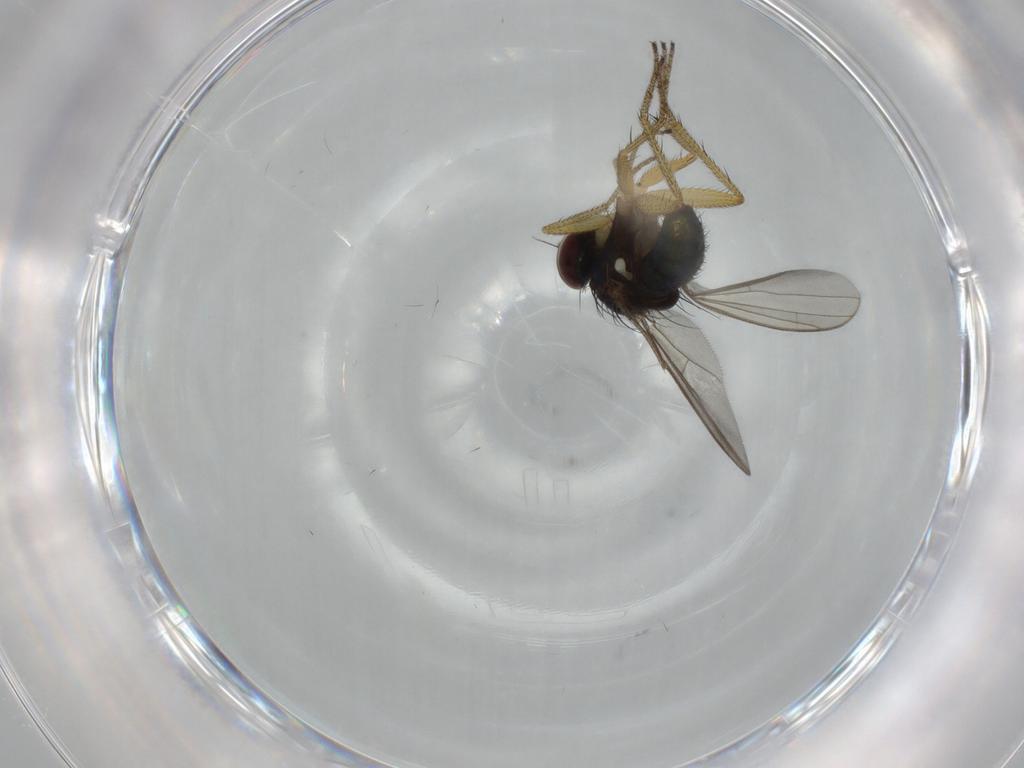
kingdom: Animalia
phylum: Arthropoda
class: Insecta
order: Diptera
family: Dolichopodidae
